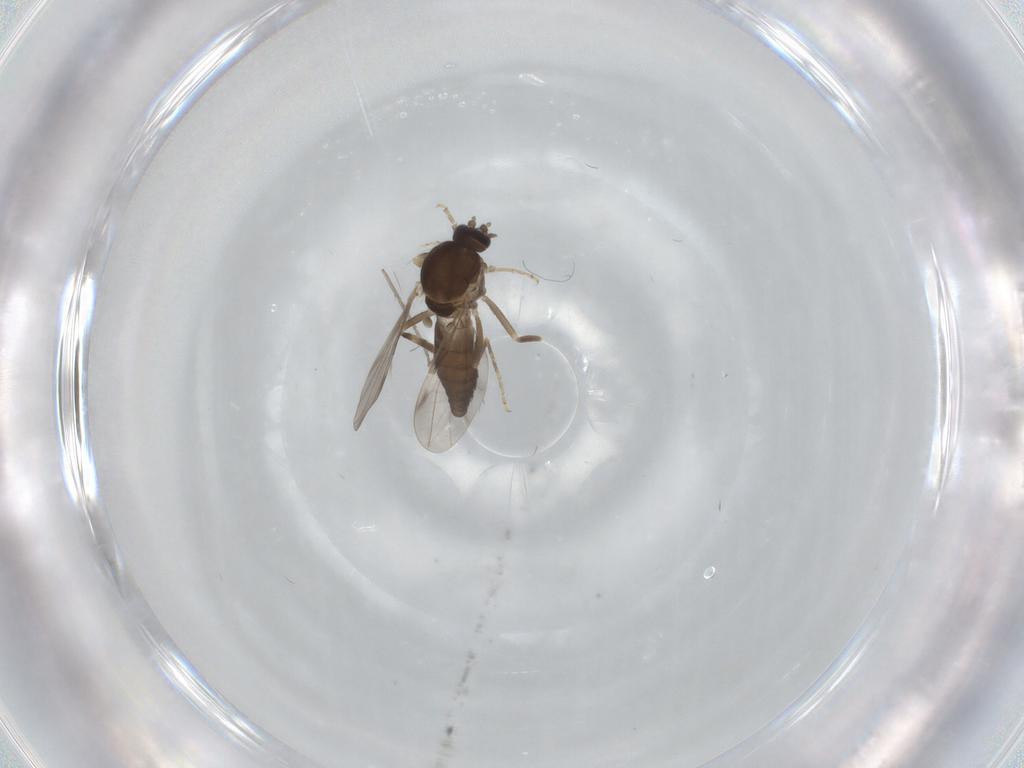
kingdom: Animalia
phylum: Arthropoda
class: Insecta
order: Diptera
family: Ceratopogonidae
